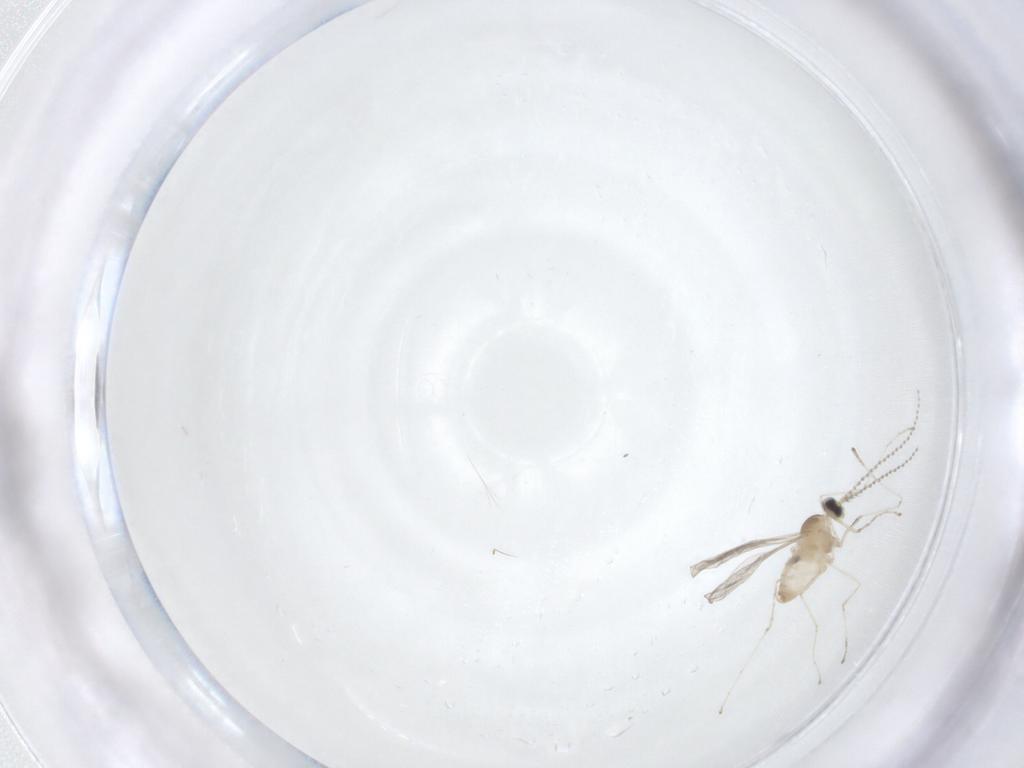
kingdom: Animalia
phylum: Arthropoda
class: Insecta
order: Diptera
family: Cecidomyiidae
